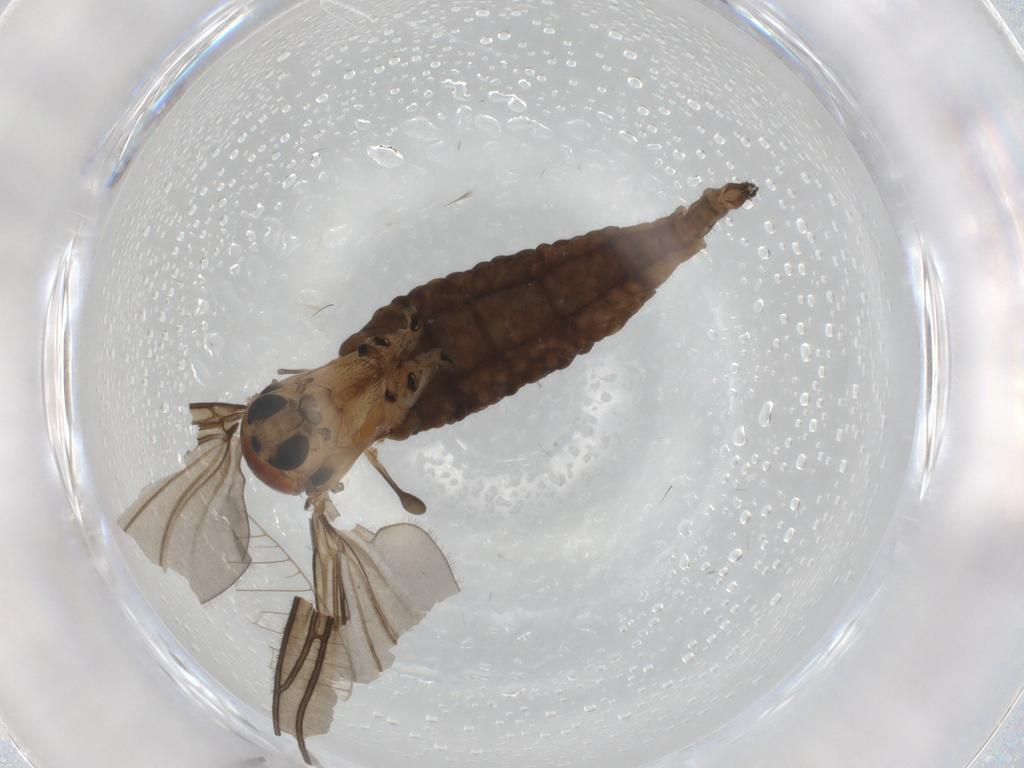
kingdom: Animalia
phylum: Arthropoda
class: Insecta
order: Diptera
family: Sciaridae
